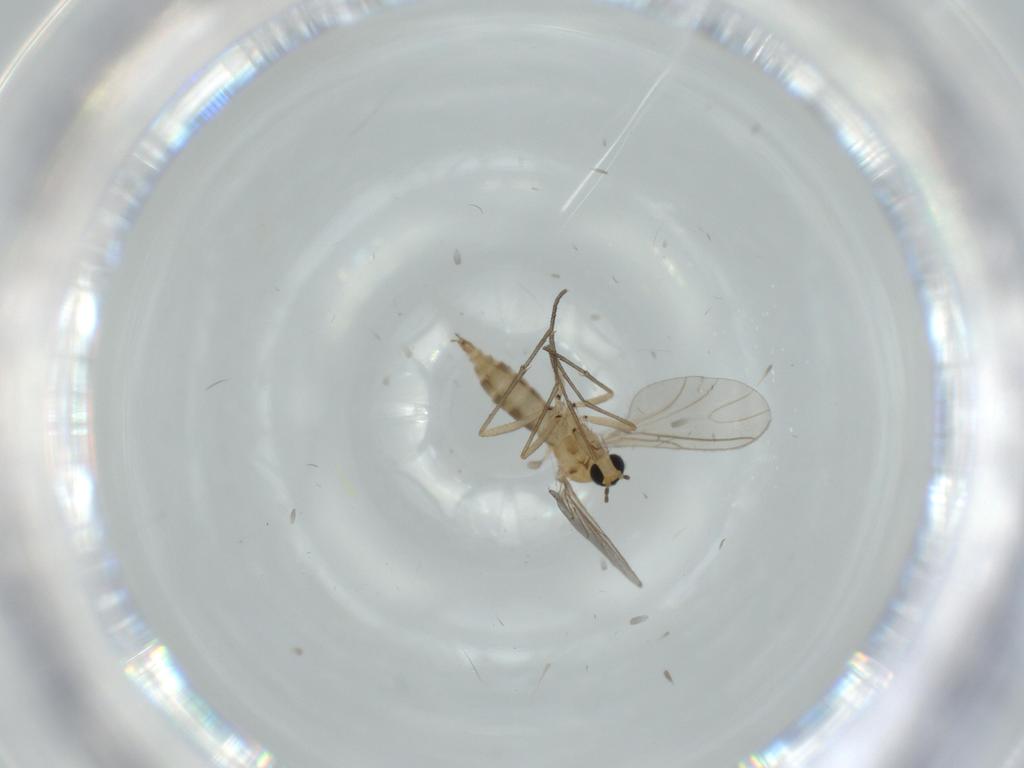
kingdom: Animalia
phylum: Arthropoda
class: Insecta
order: Diptera
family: Sciaridae
